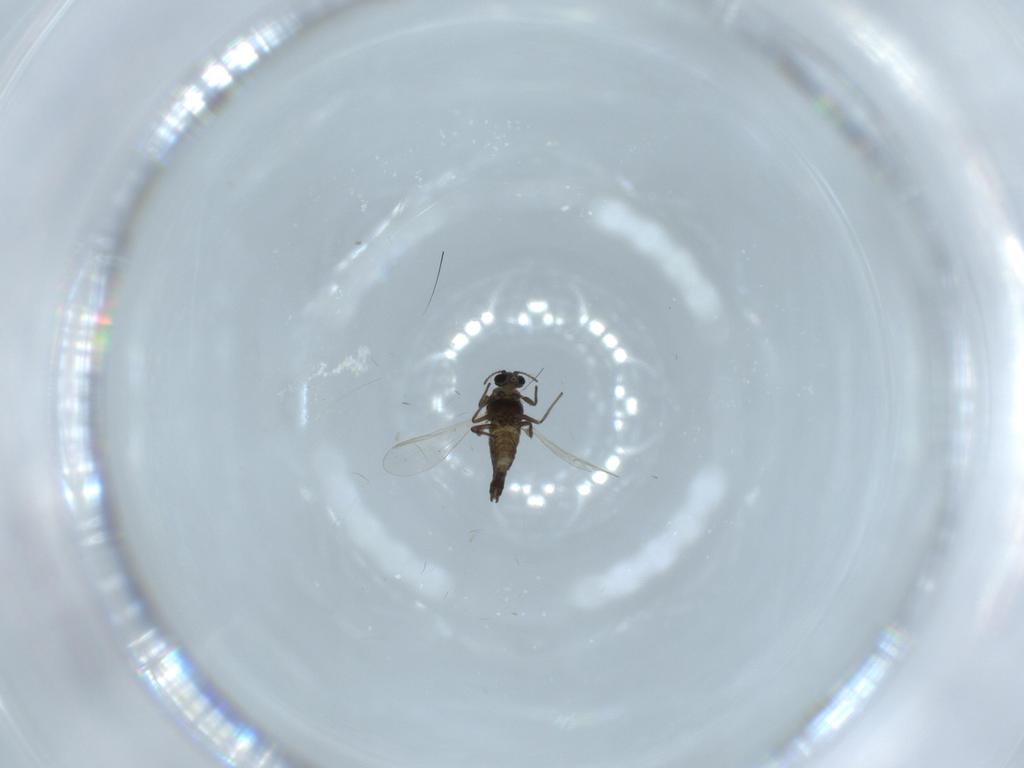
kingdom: Animalia
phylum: Arthropoda
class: Insecta
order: Diptera
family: Chironomidae
